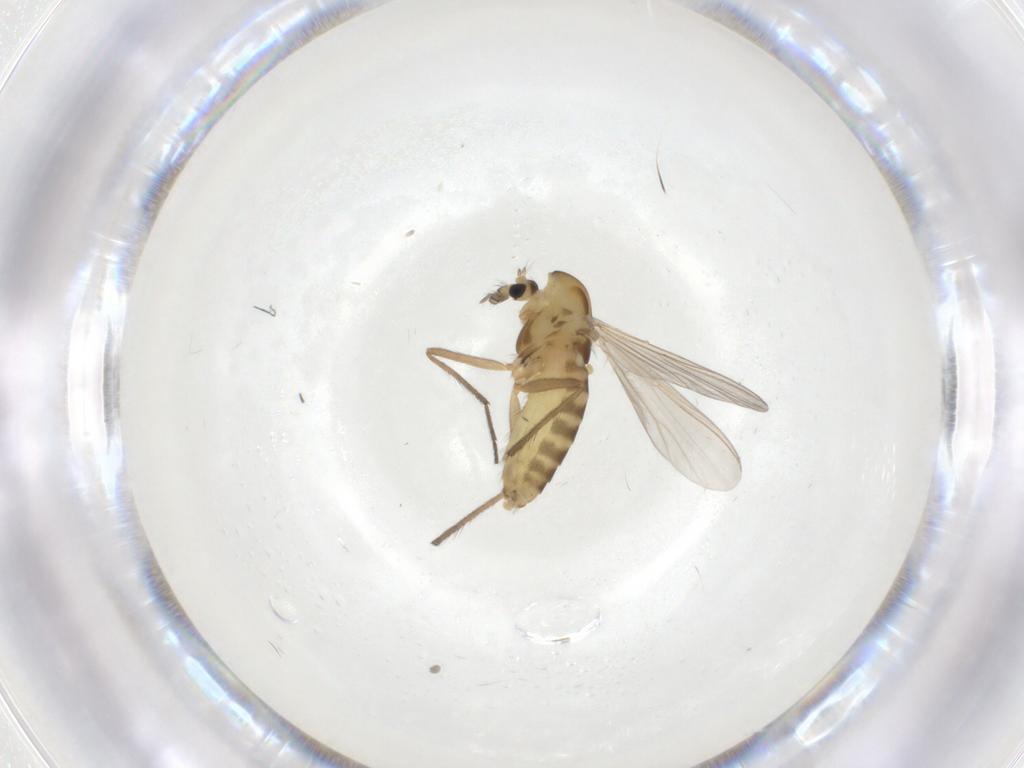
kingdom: Animalia
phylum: Arthropoda
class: Insecta
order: Diptera
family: Chironomidae
